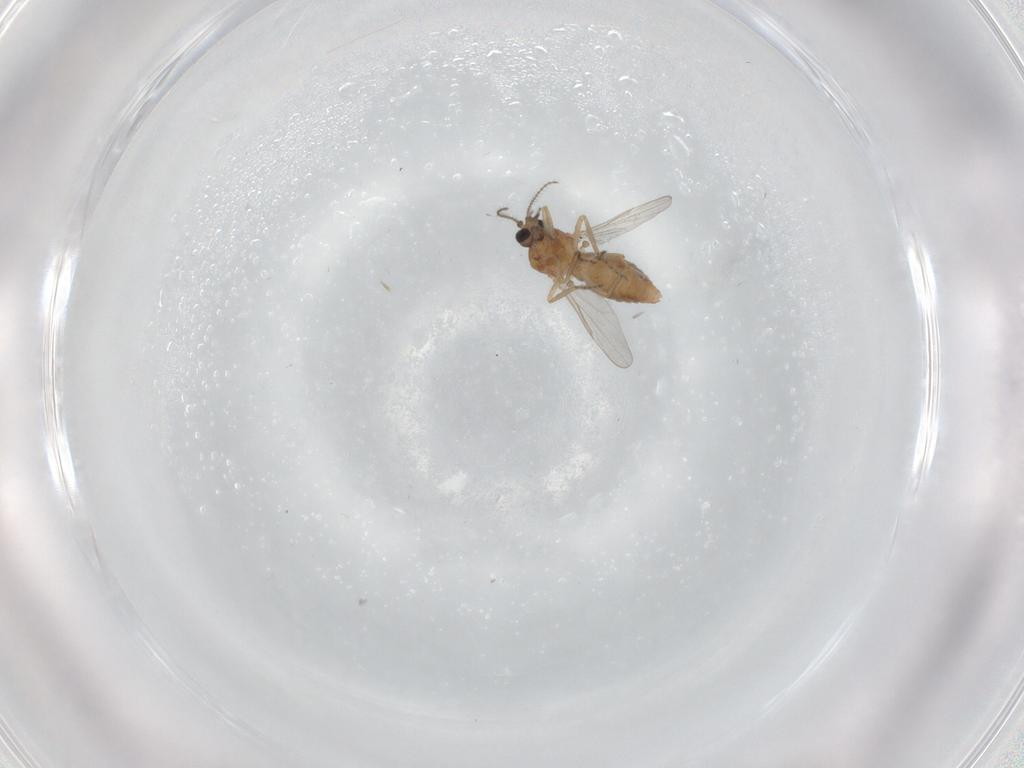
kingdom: Animalia
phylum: Arthropoda
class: Insecta
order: Diptera
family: Ceratopogonidae
